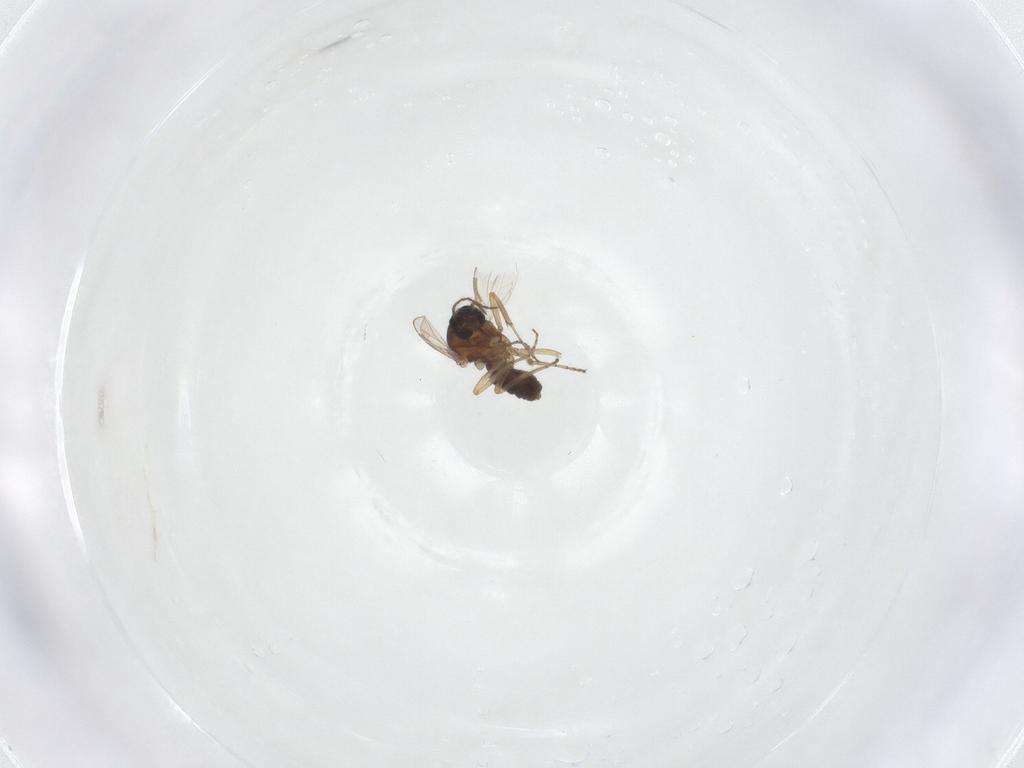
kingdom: Animalia
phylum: Arthropoda
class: Insecta
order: Diptera
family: Ceratopogonidae
